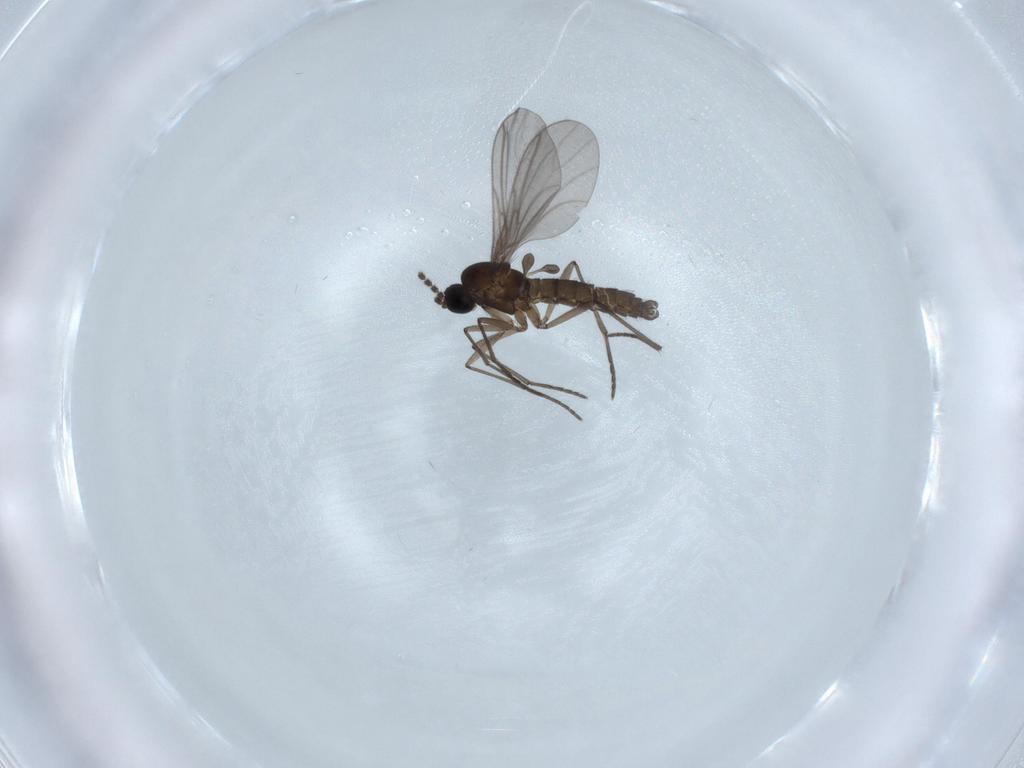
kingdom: Animalia
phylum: Arthropoda
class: Insecta
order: Diptera
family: Sciaridae
